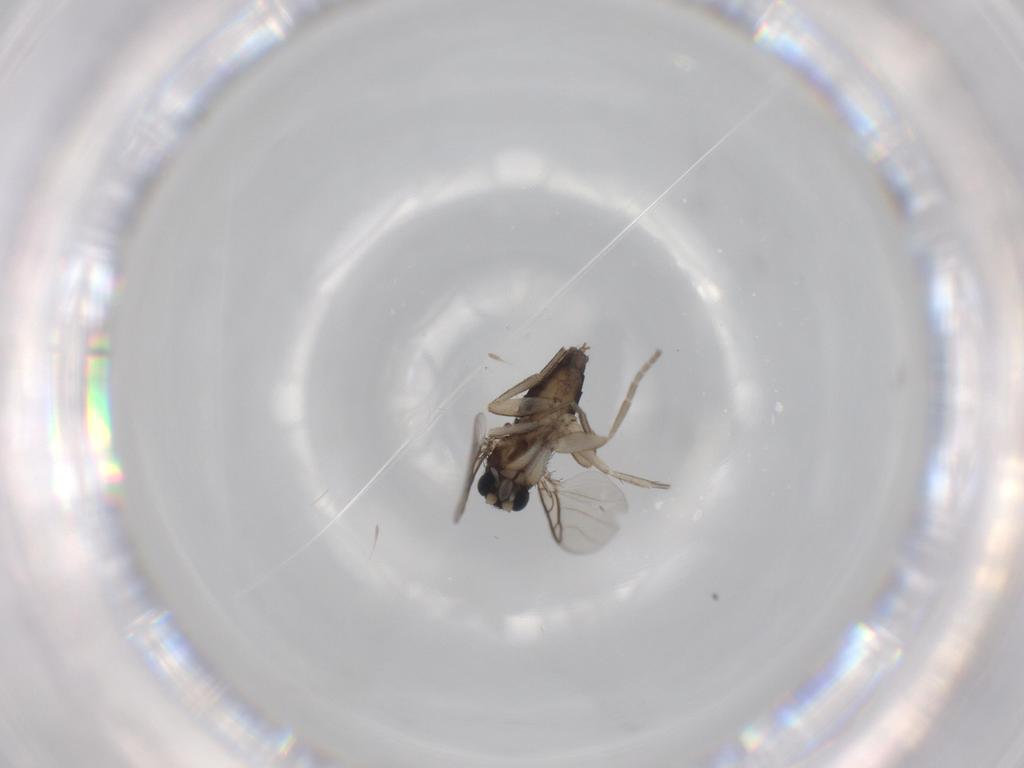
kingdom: Animalia
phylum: Arthropoda
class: Insecta
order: Diptera
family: Phoridae
